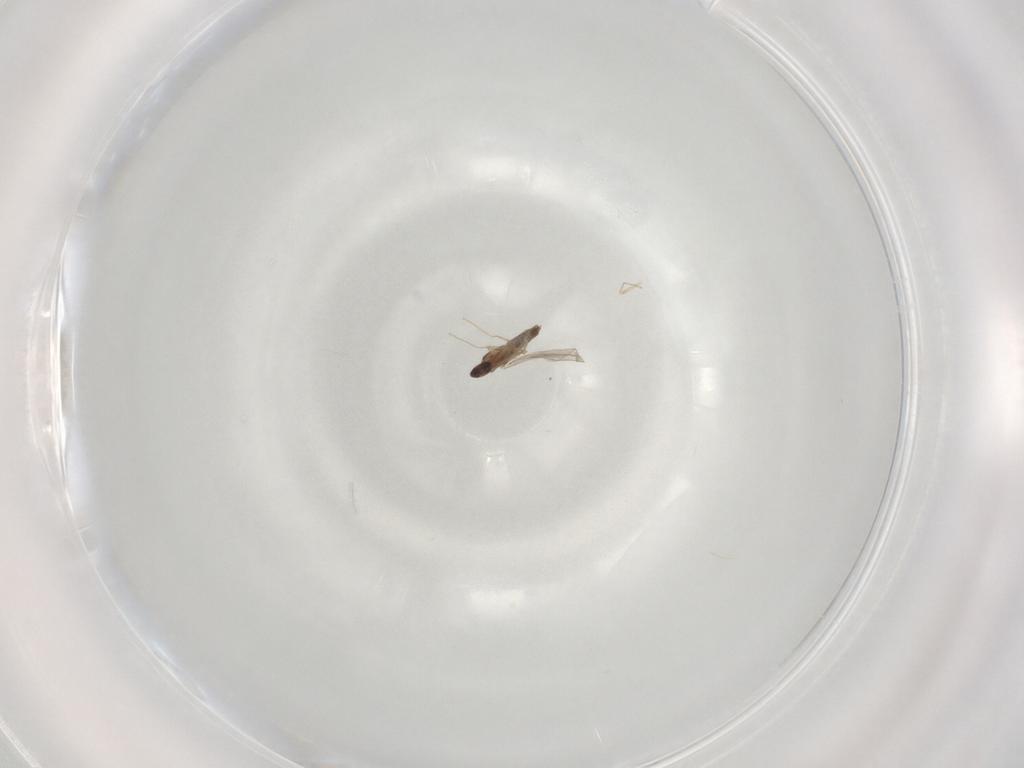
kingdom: Animalia
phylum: Arthropoda
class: Insecta
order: Diptera
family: Chironomidae
